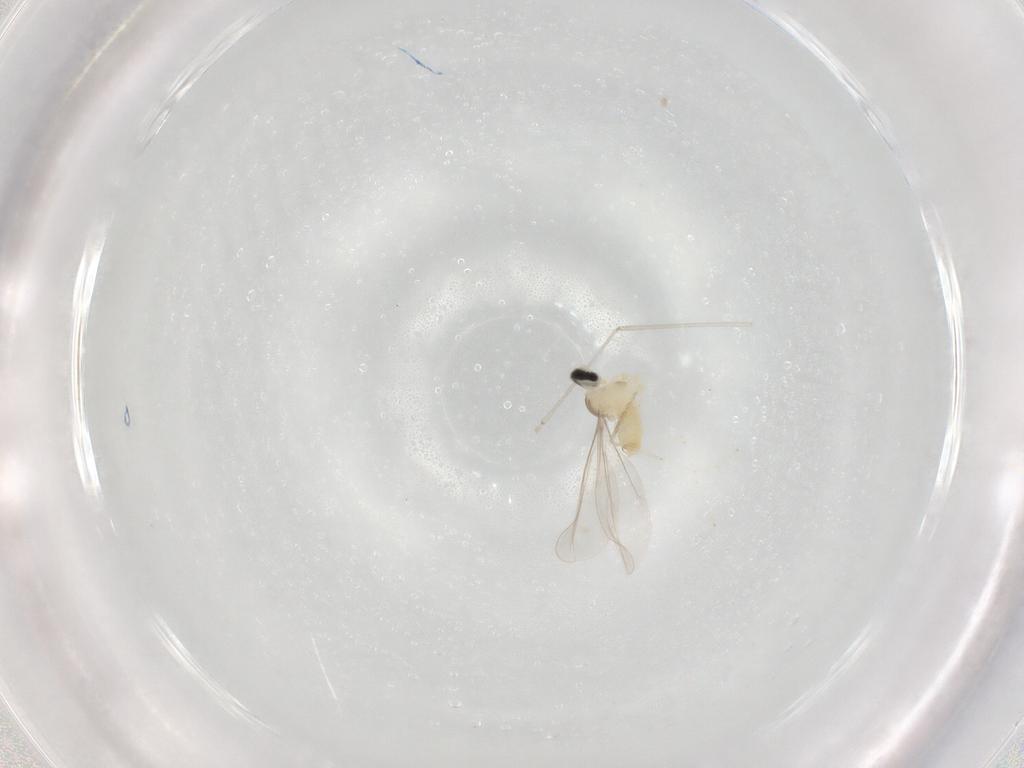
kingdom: Animalia
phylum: Arthropoda
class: Insecta
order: Diptera
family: Cecidomyiidae
